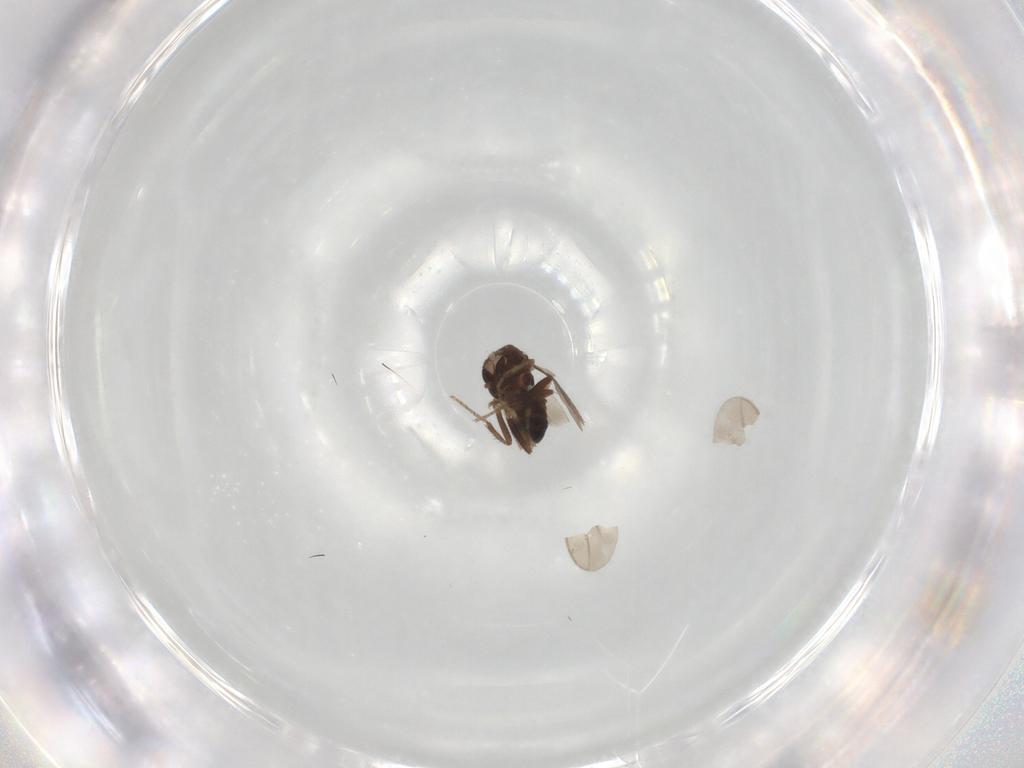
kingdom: Animalia
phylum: Arthropoda
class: Insecta
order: Diptera
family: Sphaeroceridae
